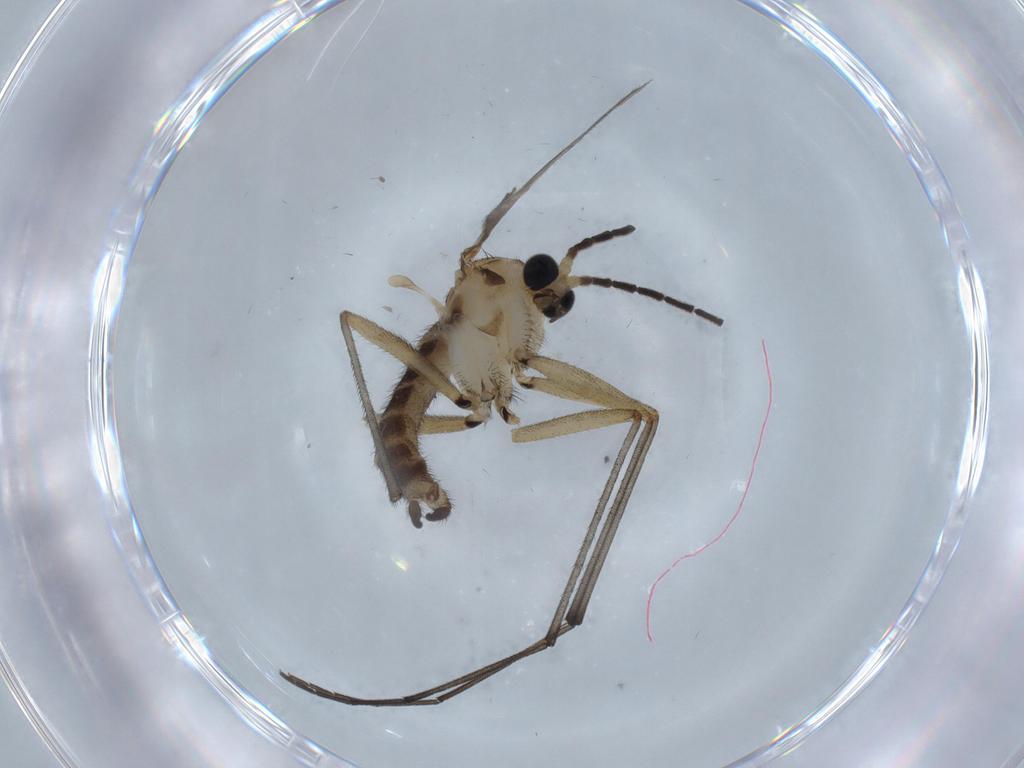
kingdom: Animalia
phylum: Arthropoda
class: Insecta
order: Diptera
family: Sciaridae
